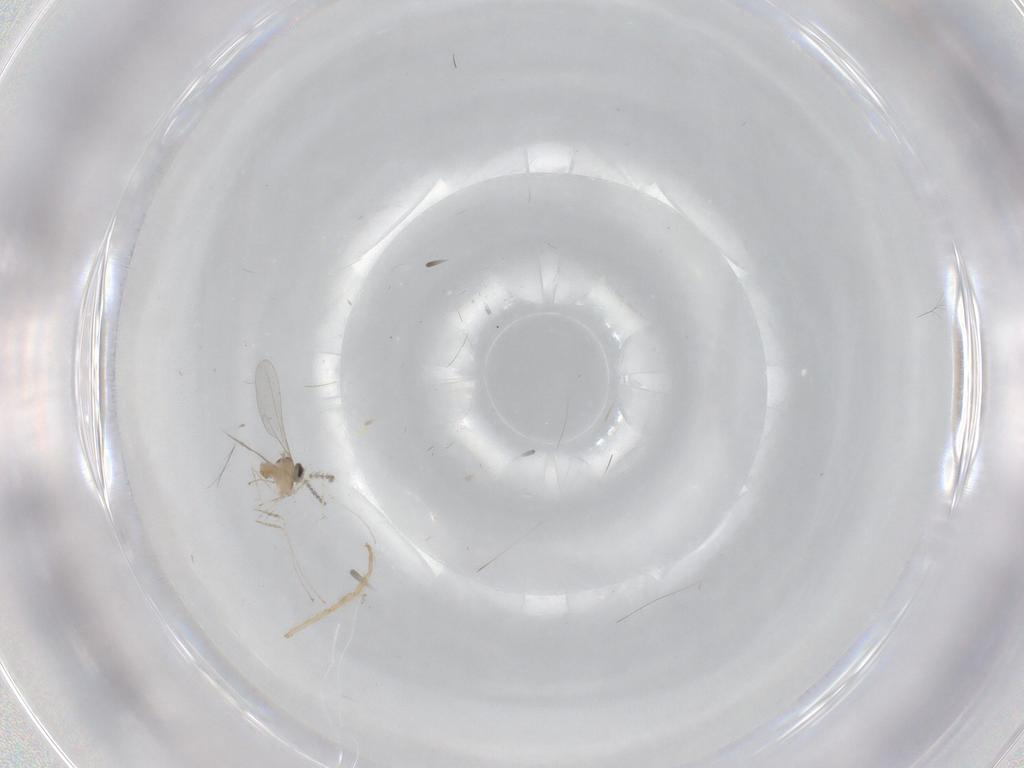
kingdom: Animalia
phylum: Arthropoda
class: Insecta
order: Diptera
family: Cecidomyiidae
